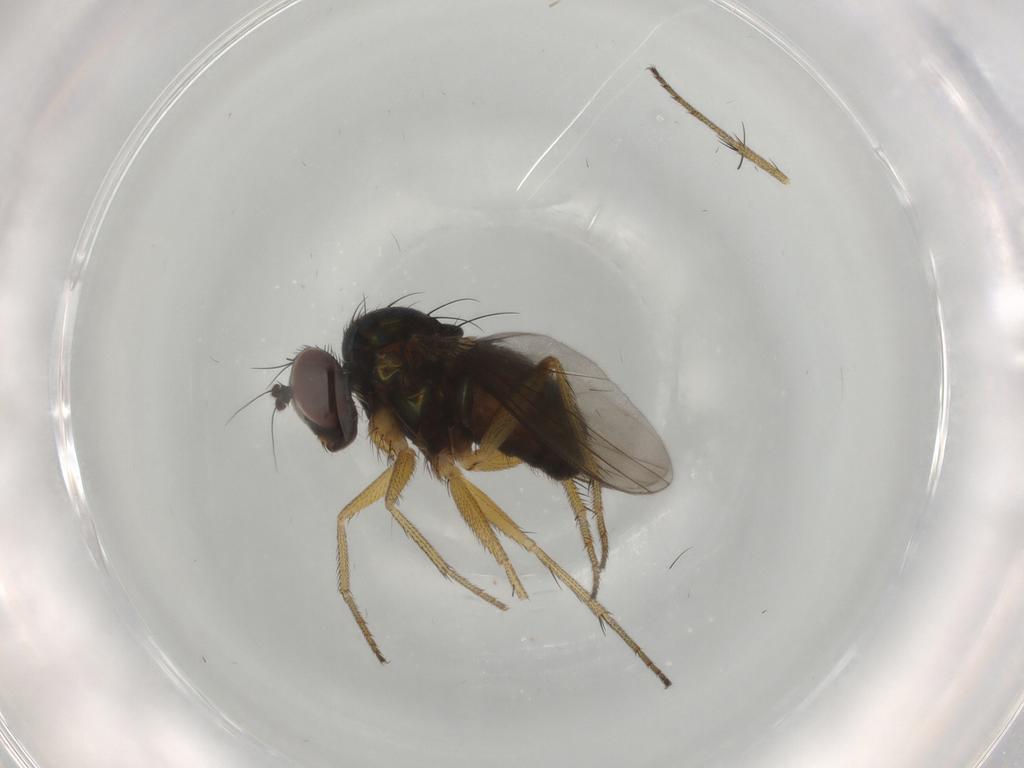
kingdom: Animalia
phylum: Arthropoda
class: Insecta
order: Diptera
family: Dolichopodidae
